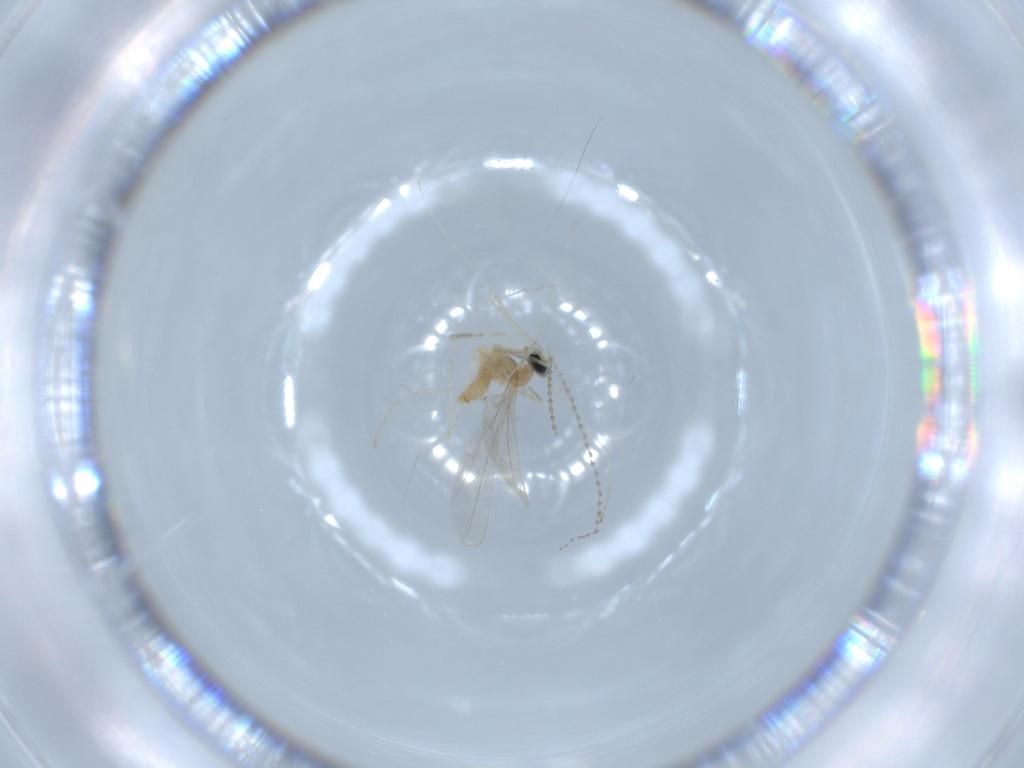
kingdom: Animalia
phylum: Arthropoda
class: Insecta
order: Diptera
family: Cecidomyiidae
